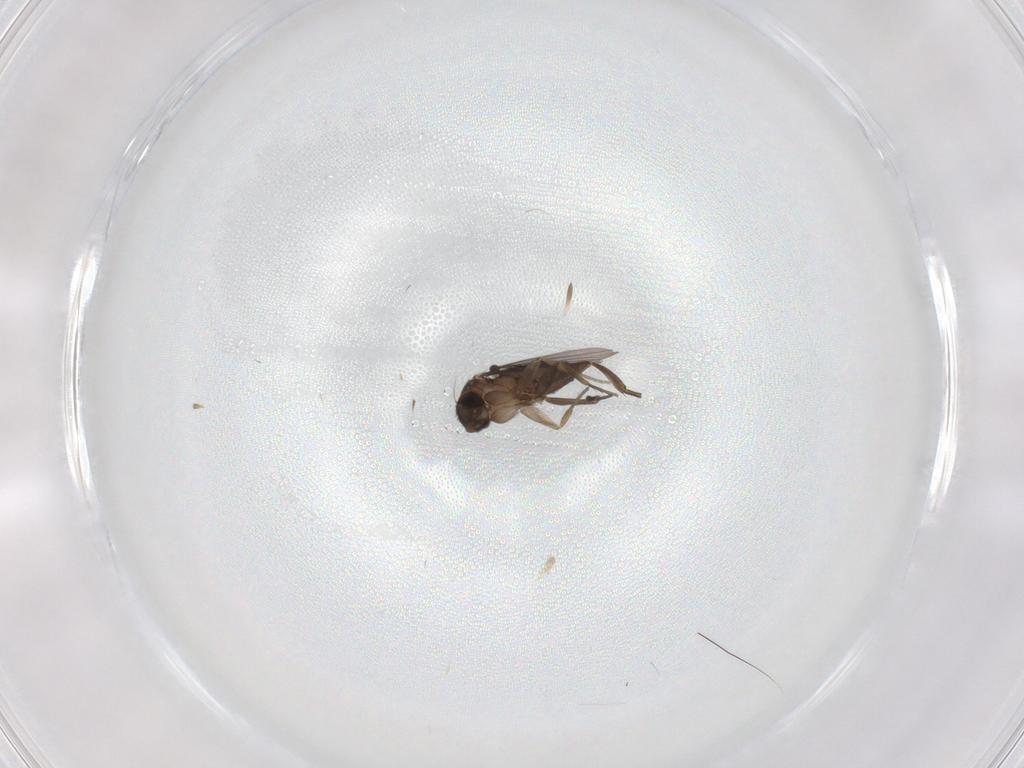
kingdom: Animalia
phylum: Arthropoda
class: Insecta
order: Diptera
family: Phoridae
